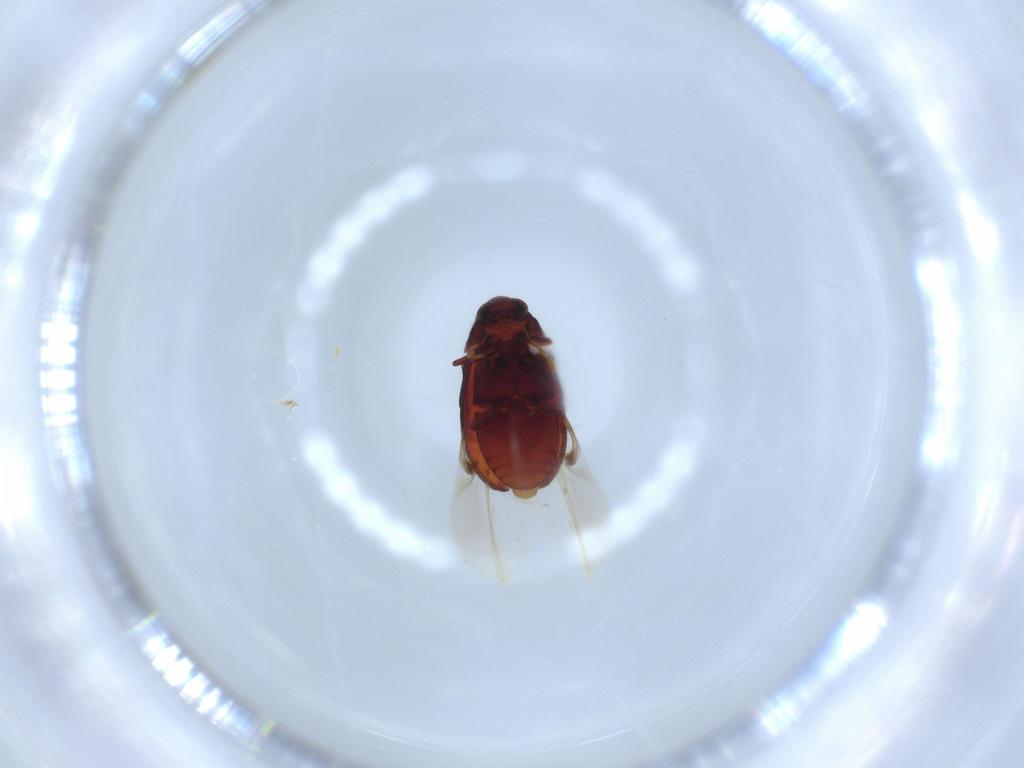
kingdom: Animalia
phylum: Arthropoda
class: Insecta
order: Coleoptera
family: Ptinidae
